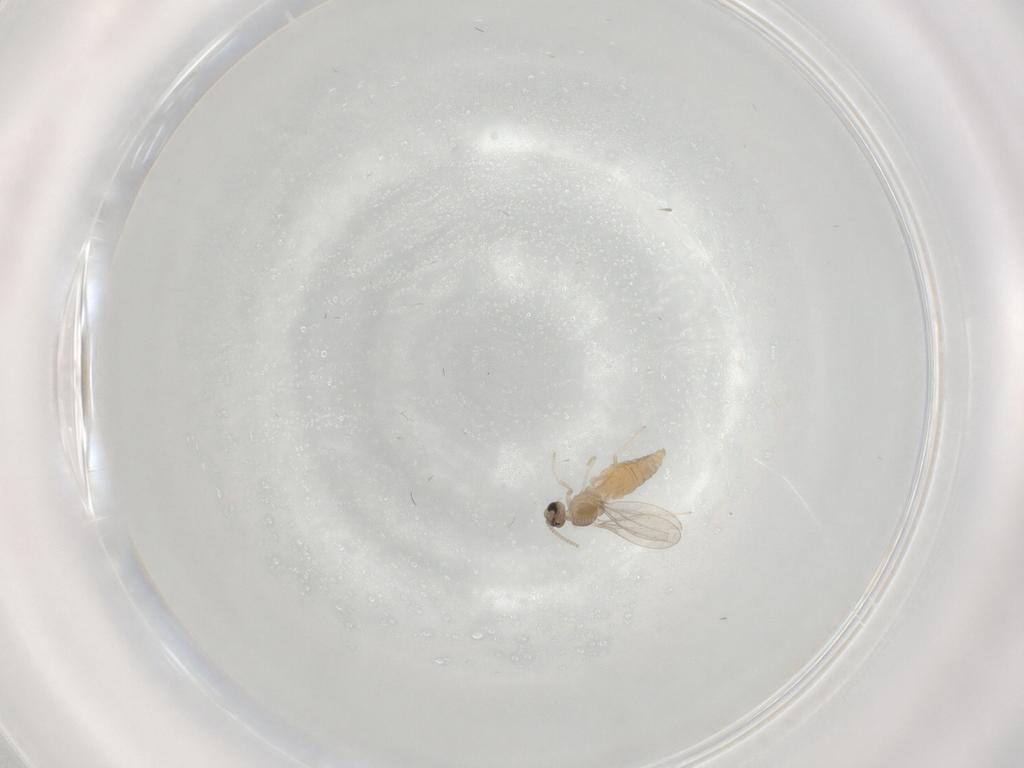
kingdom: Animalia
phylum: Arthropoda
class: Insecta
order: Diptera
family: Cecidomyiidae
